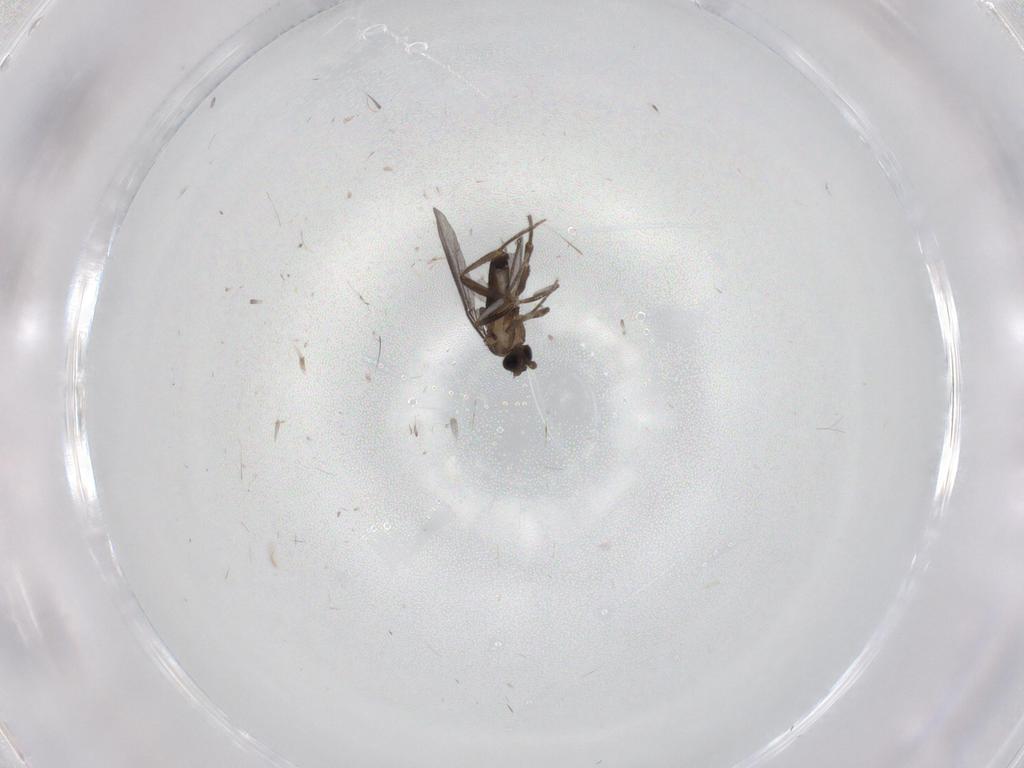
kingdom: Animalia
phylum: Arthropoda
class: Insecta
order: Diptera
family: Phoridae
